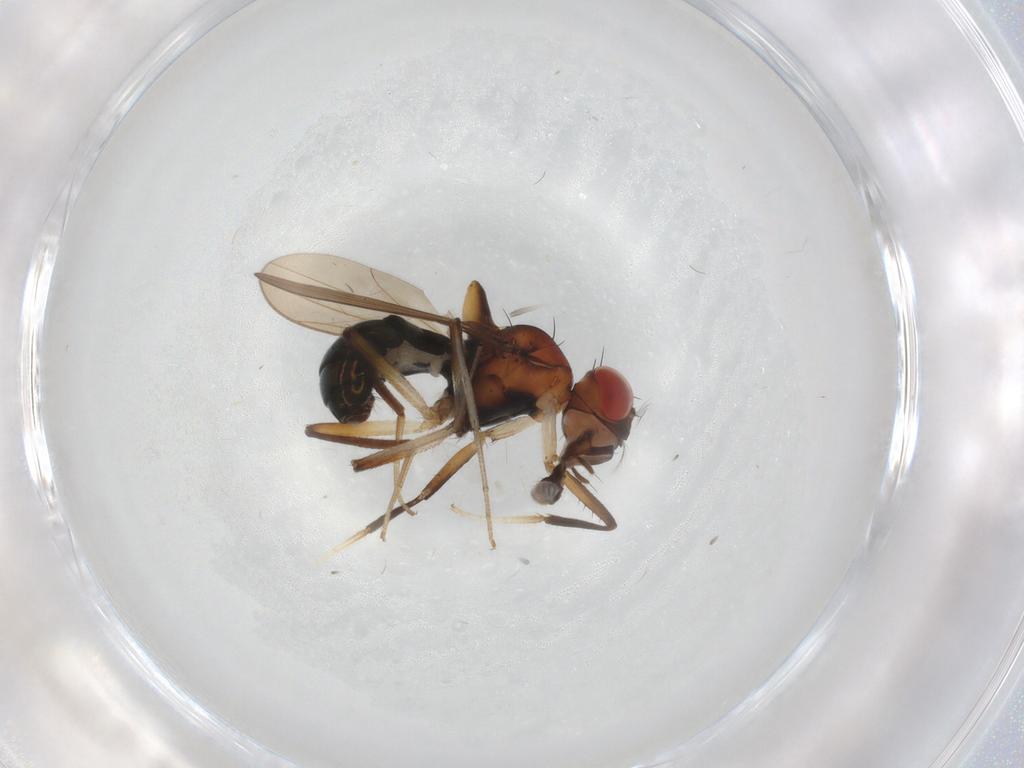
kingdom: Animalia
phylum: Arthropoda
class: Insecta
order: Diptera
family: Drosophilidae
